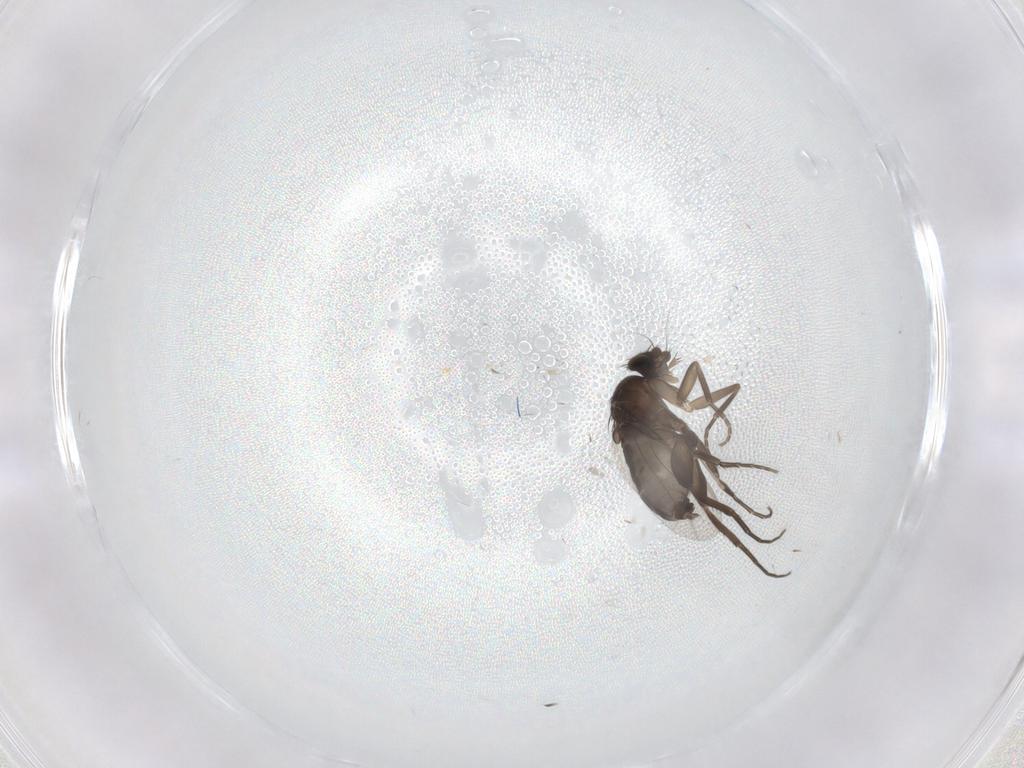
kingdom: Animalia
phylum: Arthropoda
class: Insecta
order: Diptera
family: Phoridae
